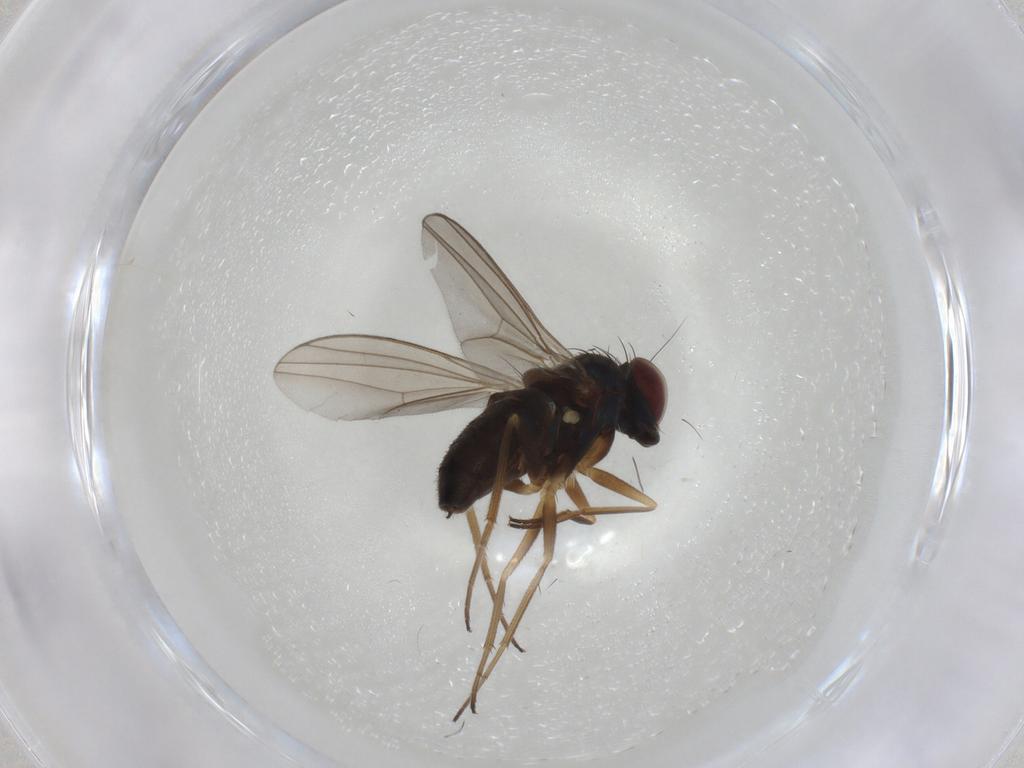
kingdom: Animalia
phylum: Arthropoda
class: Insecta
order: Diptera
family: Dolichopodidae
